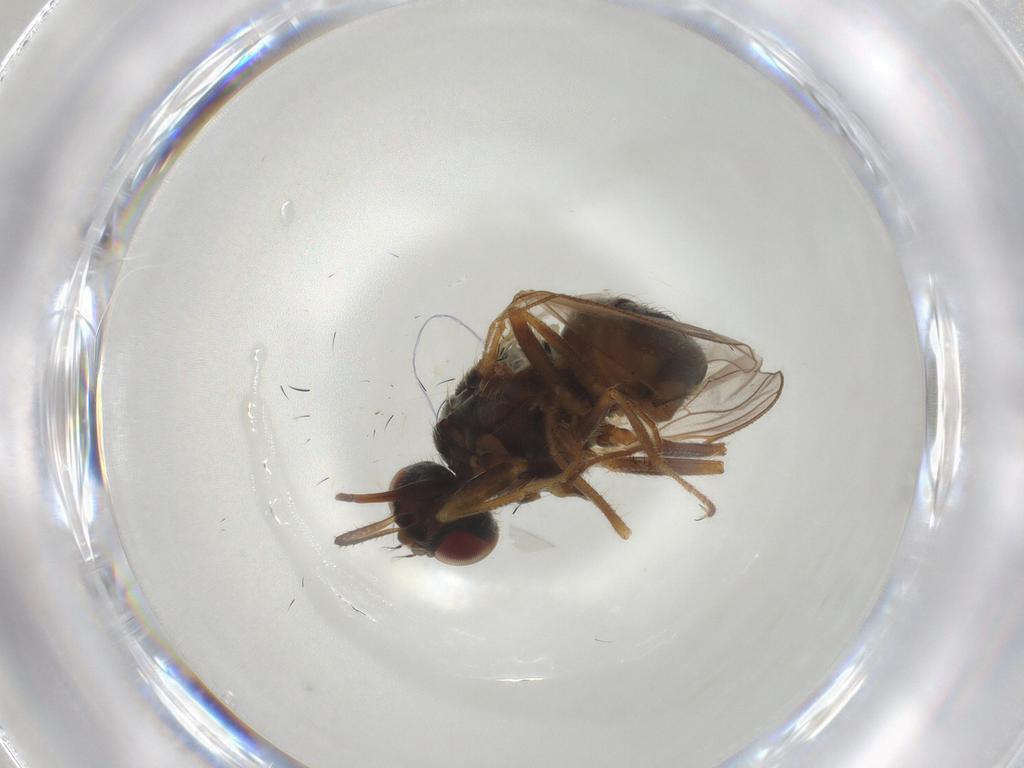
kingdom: Animalia
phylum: Arthropoda
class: Insecta
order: Diptera
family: Muscidae
